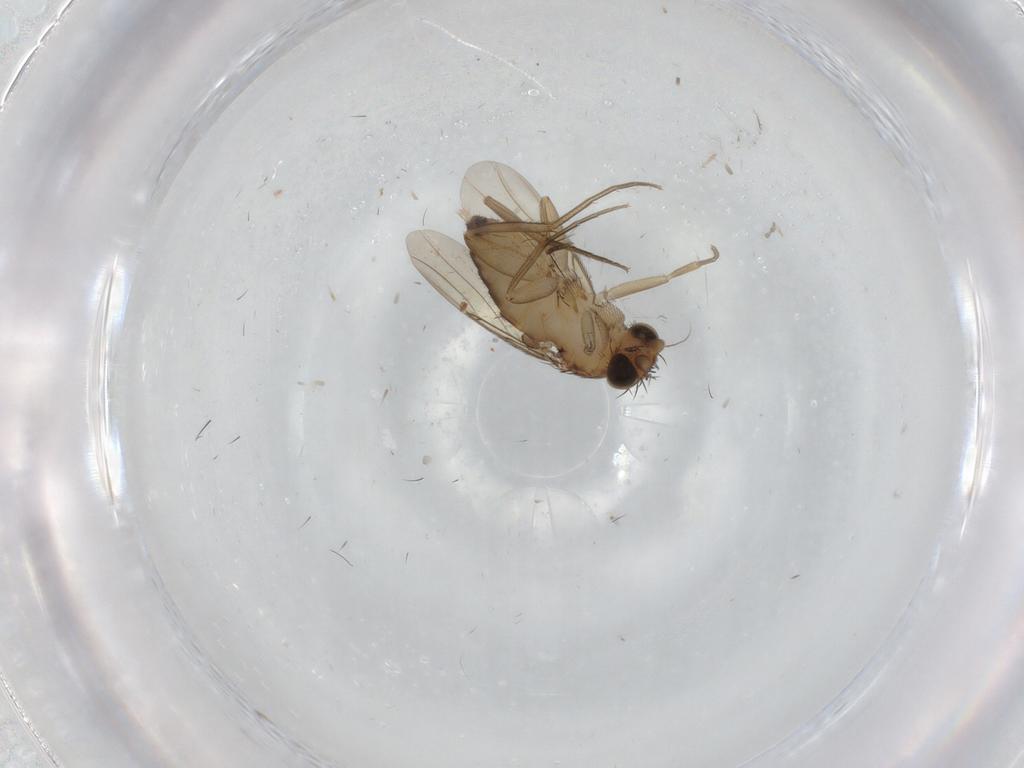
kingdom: Animalia
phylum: Arthropoda
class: Insecta
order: Diptera
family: Phoridae
